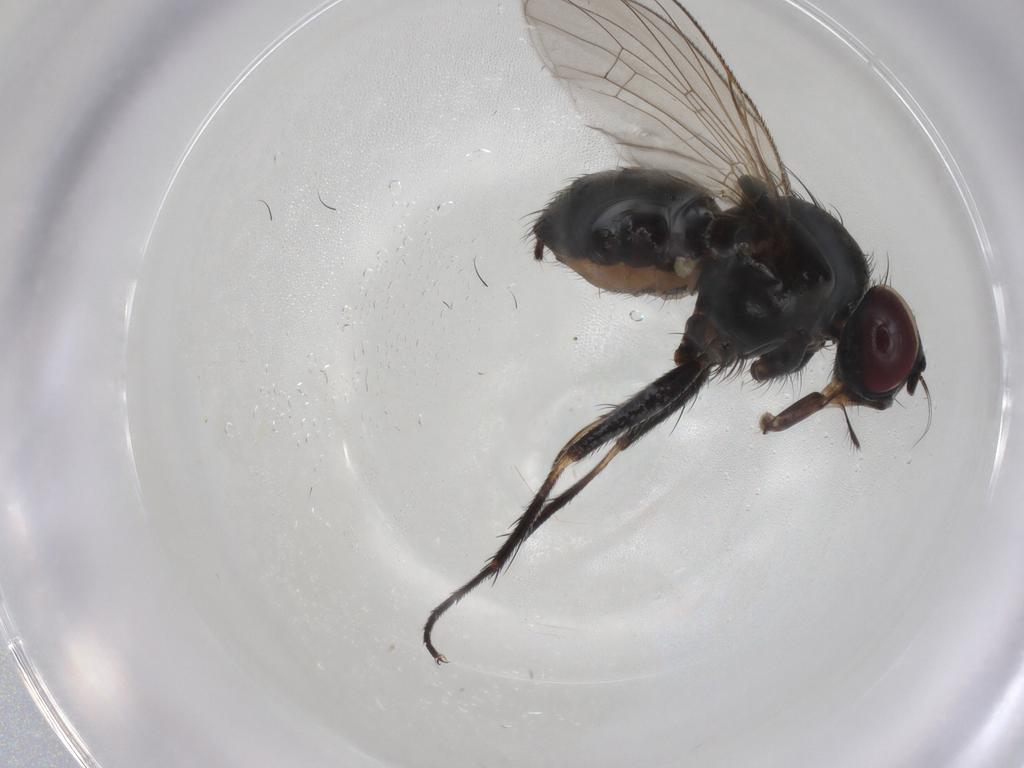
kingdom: Animalia
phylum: Arthropoda
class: Insecta
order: Diptera
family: Muscidae
